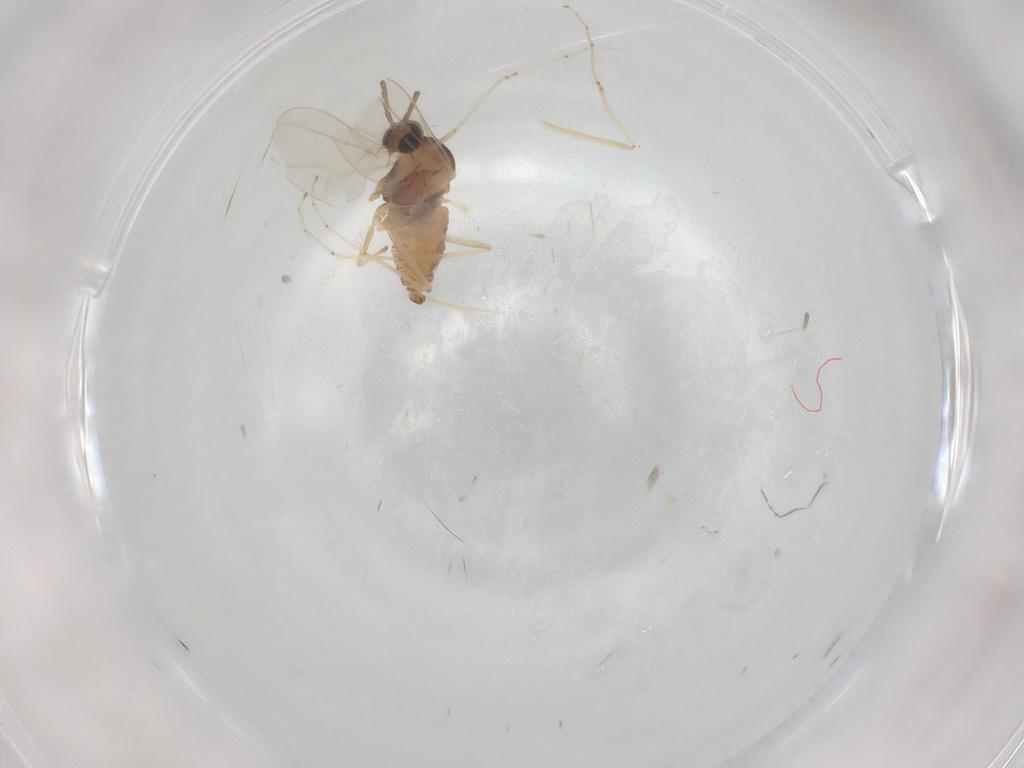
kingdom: Animalia
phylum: Arthropoda
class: Insecta
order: Diptera
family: Cecidomyiidae
